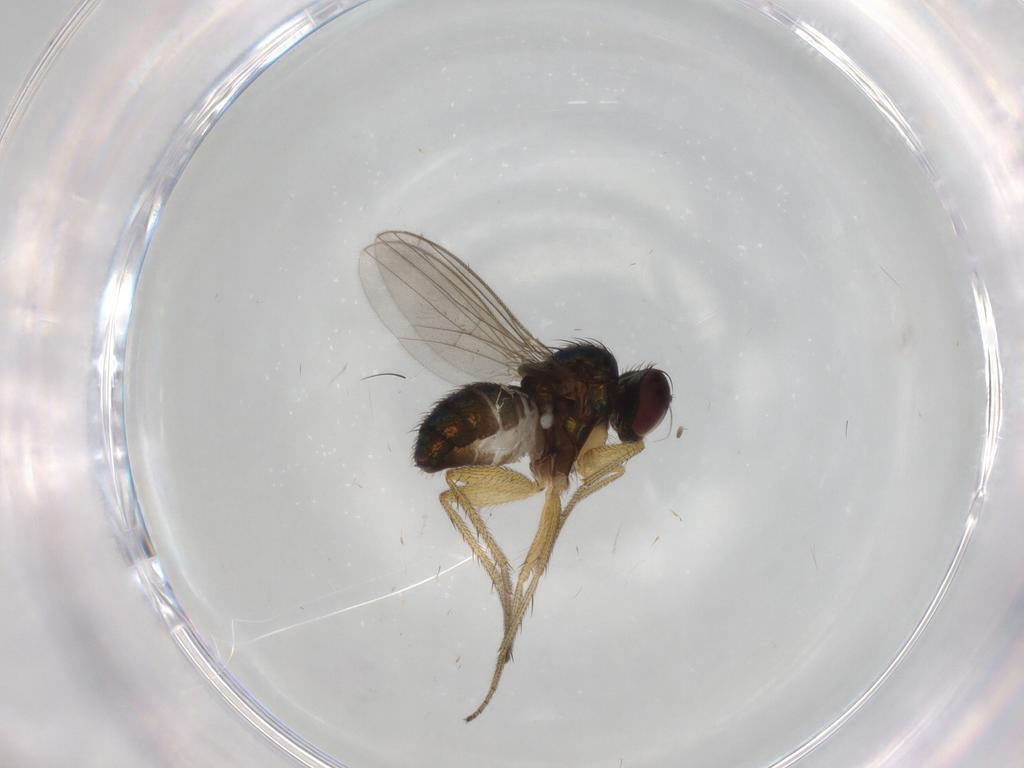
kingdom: Animalia
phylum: Arthropoda
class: Insecta
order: Diptera
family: Dolichopodidae
